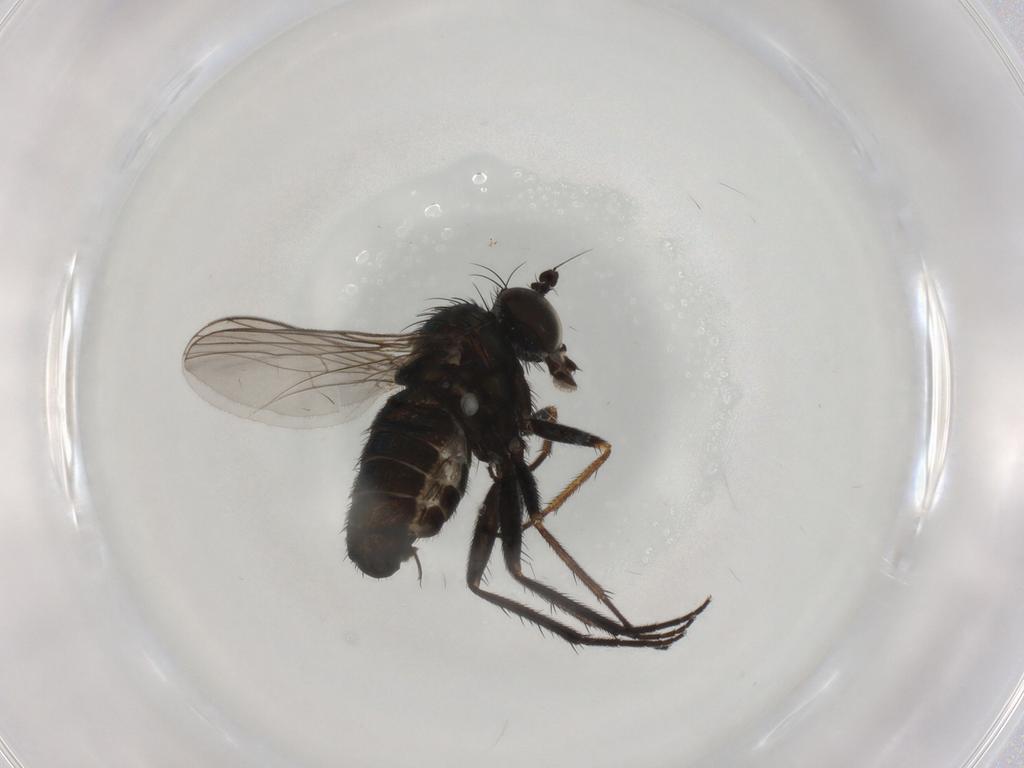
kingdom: Animalia
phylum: Arthropoda
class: Insecta
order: Diptera
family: Dolichopodidae
